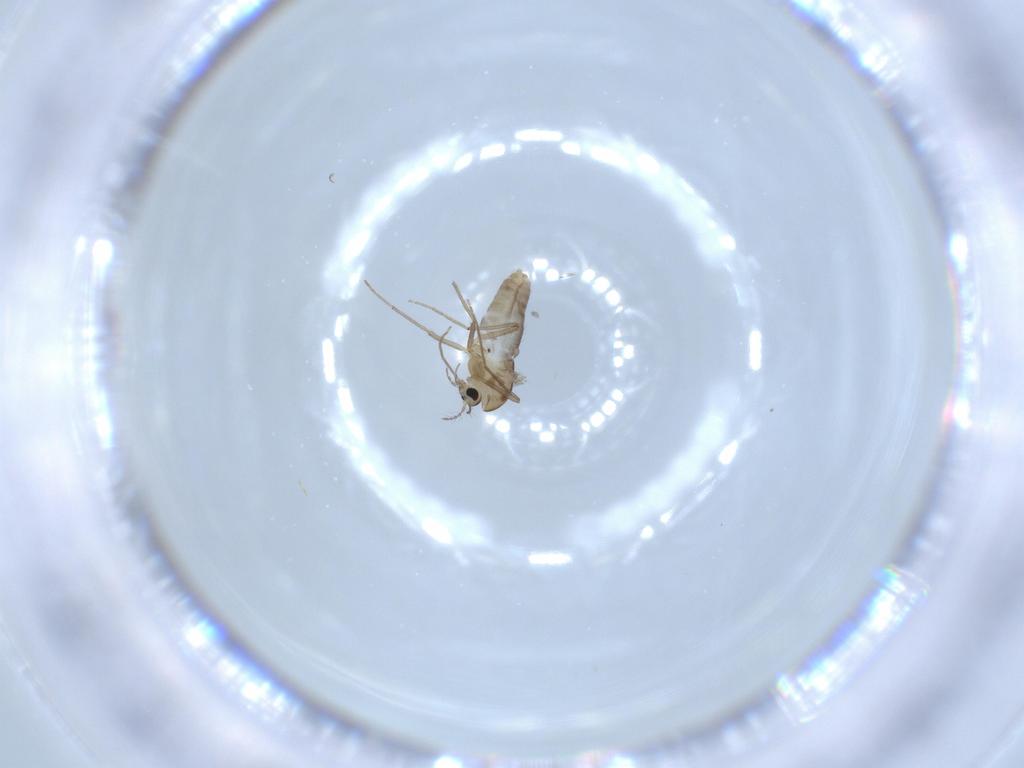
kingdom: Animalia
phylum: Arthropoda
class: Insecta
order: Diptera
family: Chironomidae
